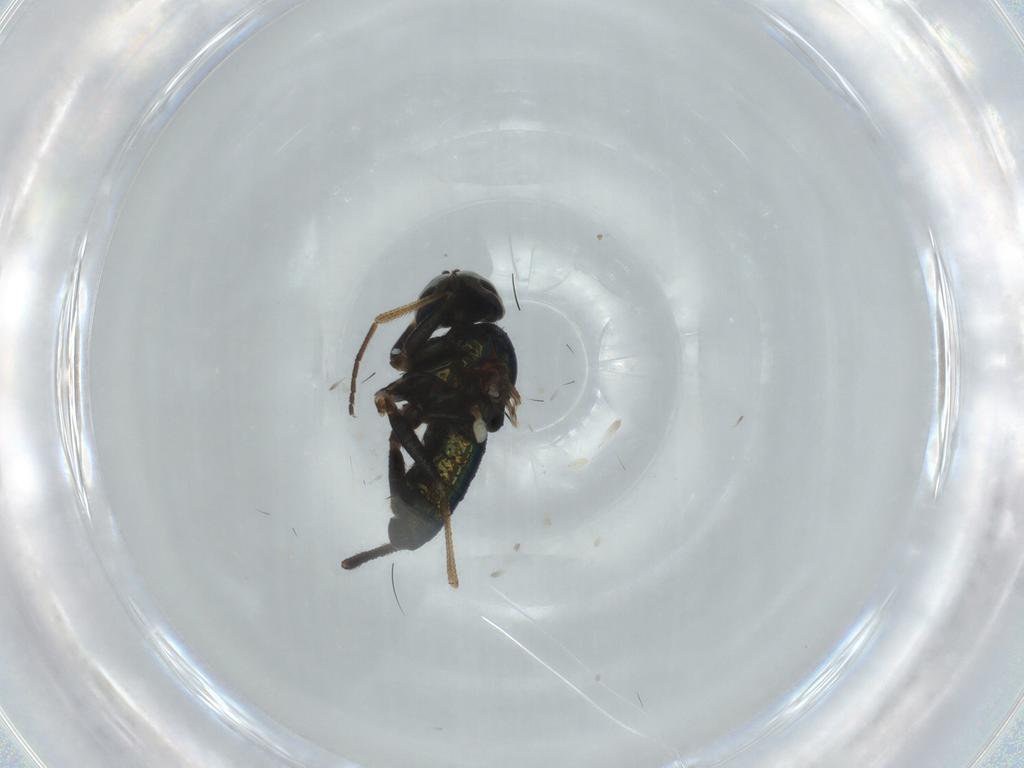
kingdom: Animalia
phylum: Arthropoda
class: Insecta
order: Diptera
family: Dolichopodidae
